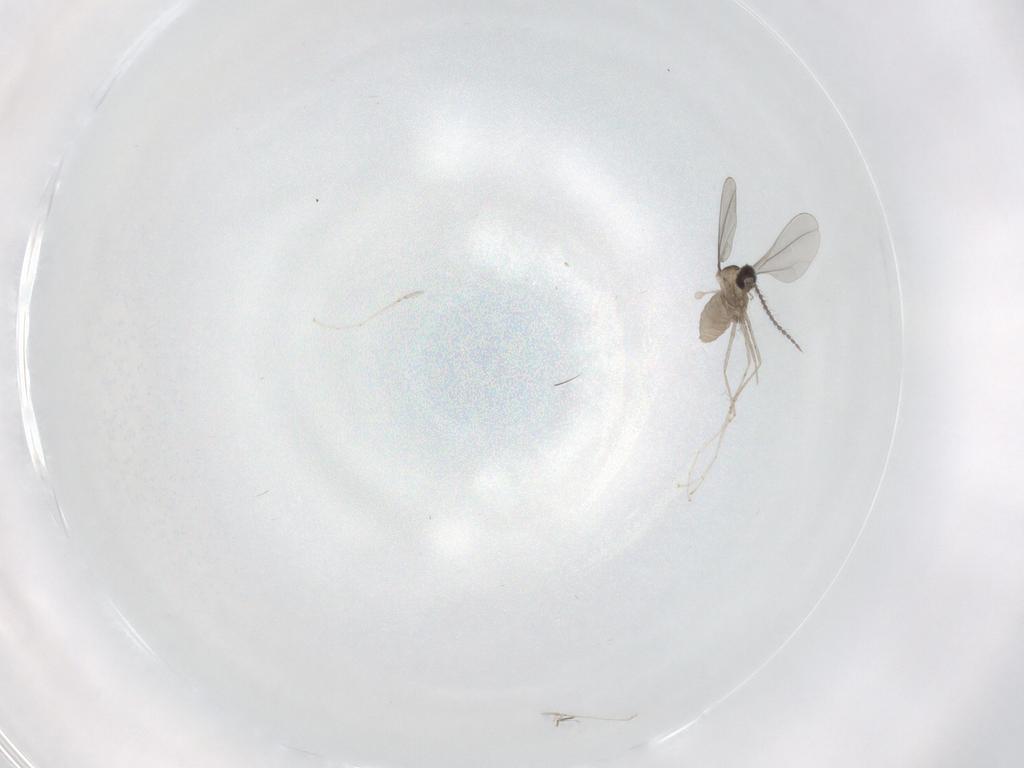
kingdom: Animalia
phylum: Arthropoda
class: Insecta
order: Diptera
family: Cecidomyiidae
